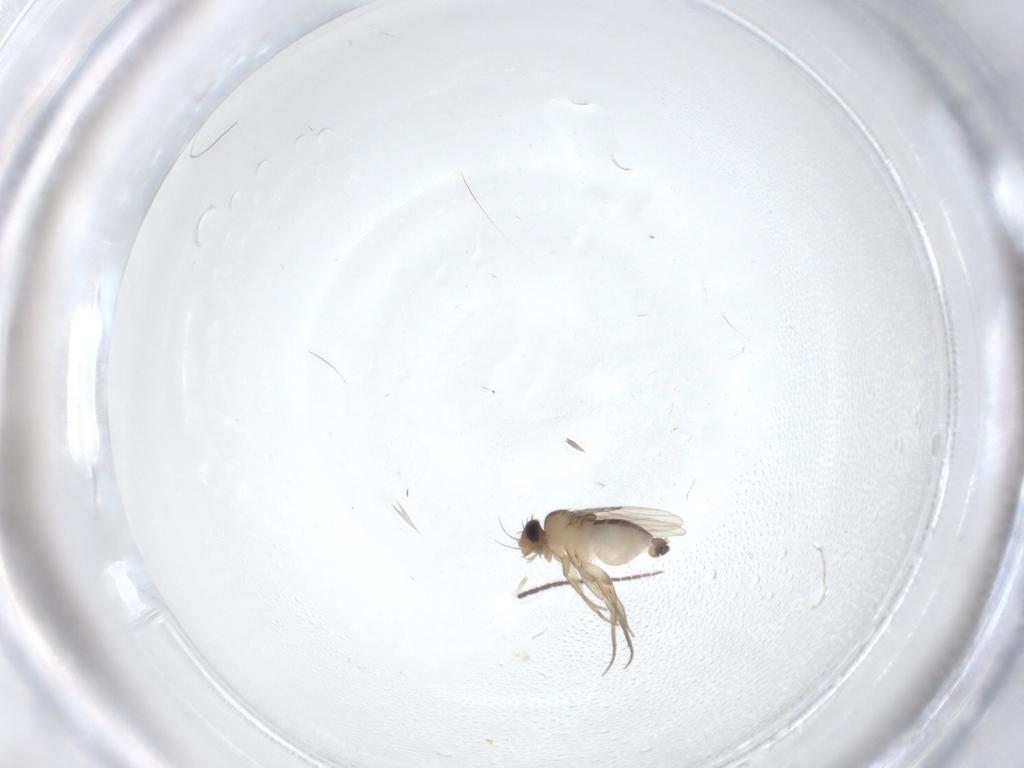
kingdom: Animalia
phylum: Arthropoda
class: Insecta
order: Diptera
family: Phoridae
